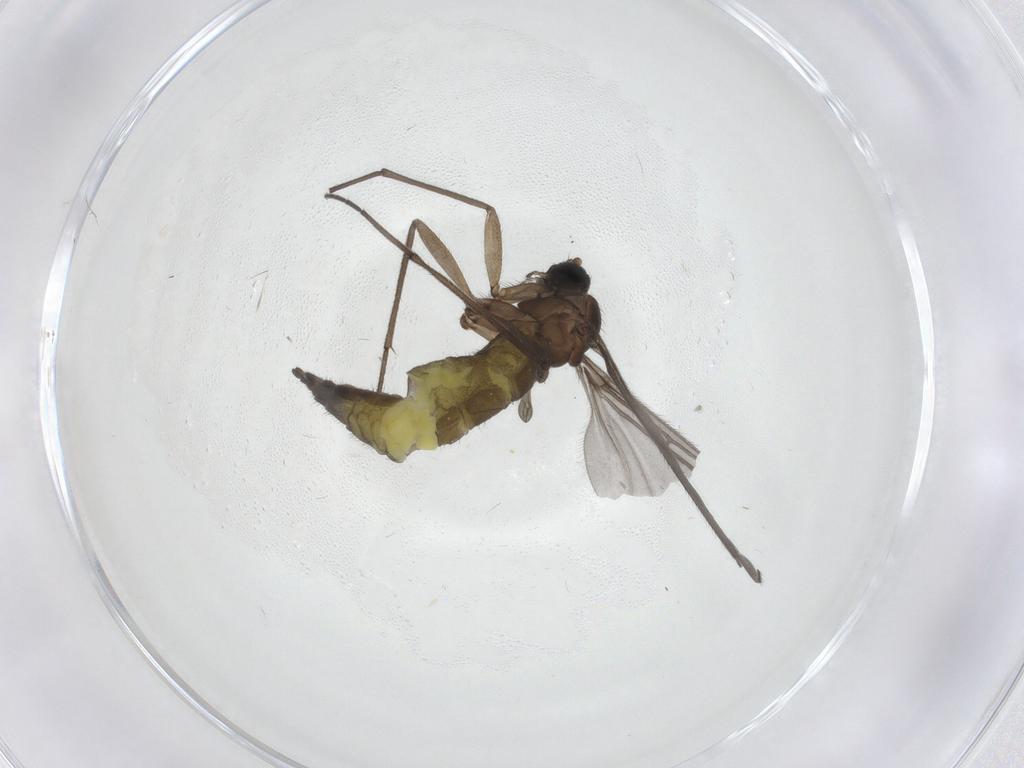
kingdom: Animalia
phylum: Arthropoda
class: Insecta
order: Diptera
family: Sciaridae
